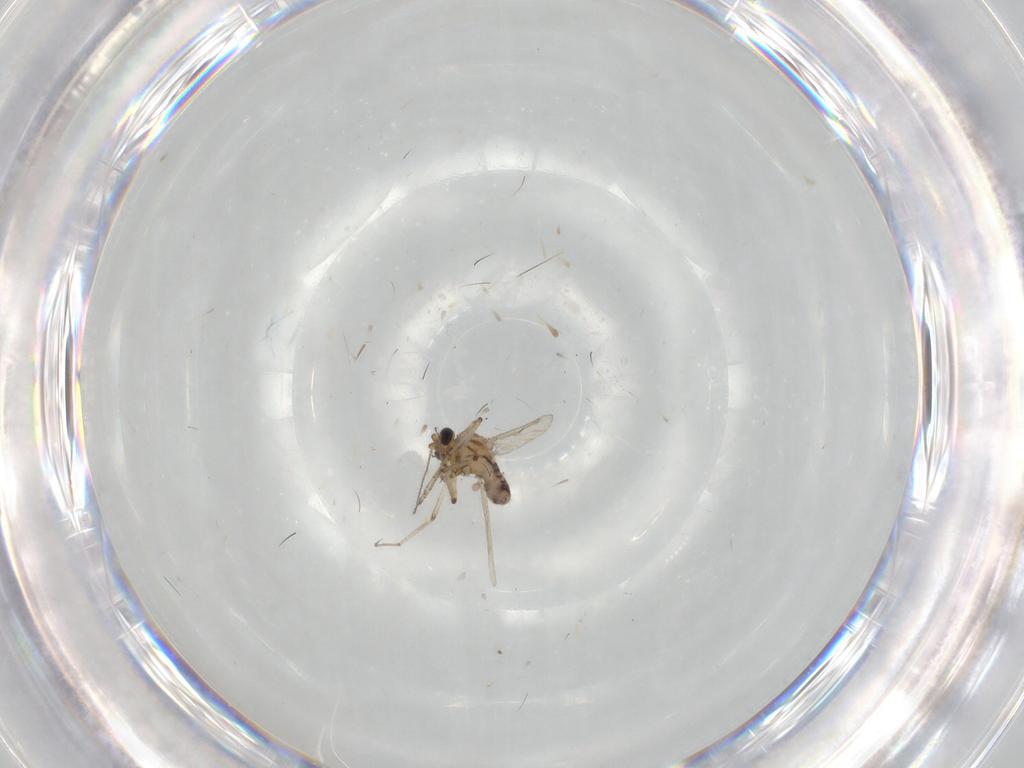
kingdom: Animalia
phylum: Arthropoda
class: Insecta
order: Diptera
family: Ceratopogonidae
